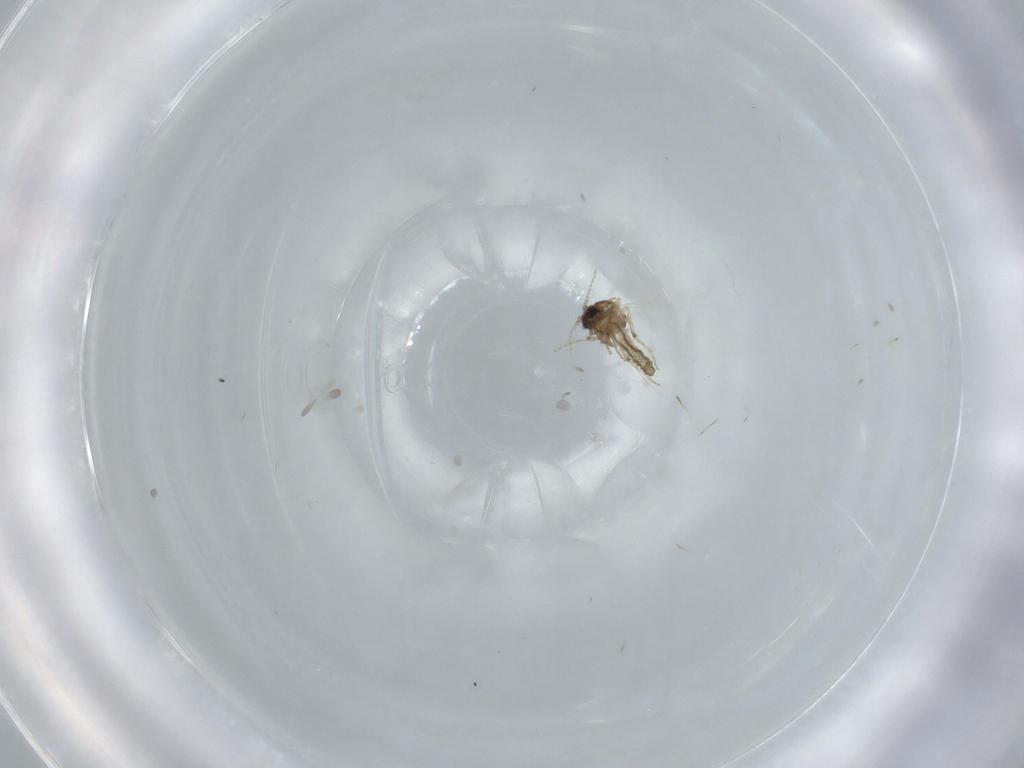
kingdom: Animalia
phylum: Arthropoda
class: Insecta
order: Diptera
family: Ceratopogonidae
